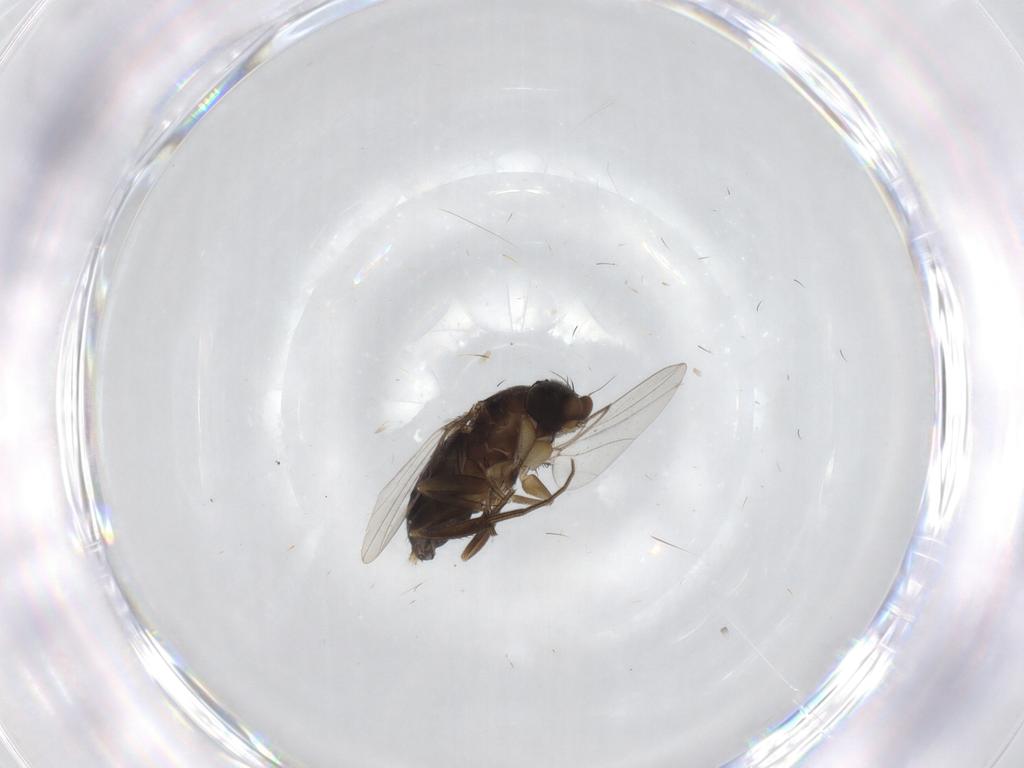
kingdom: Animalia
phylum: Arthropoda
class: Insecta
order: Diptera
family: Phoridae
